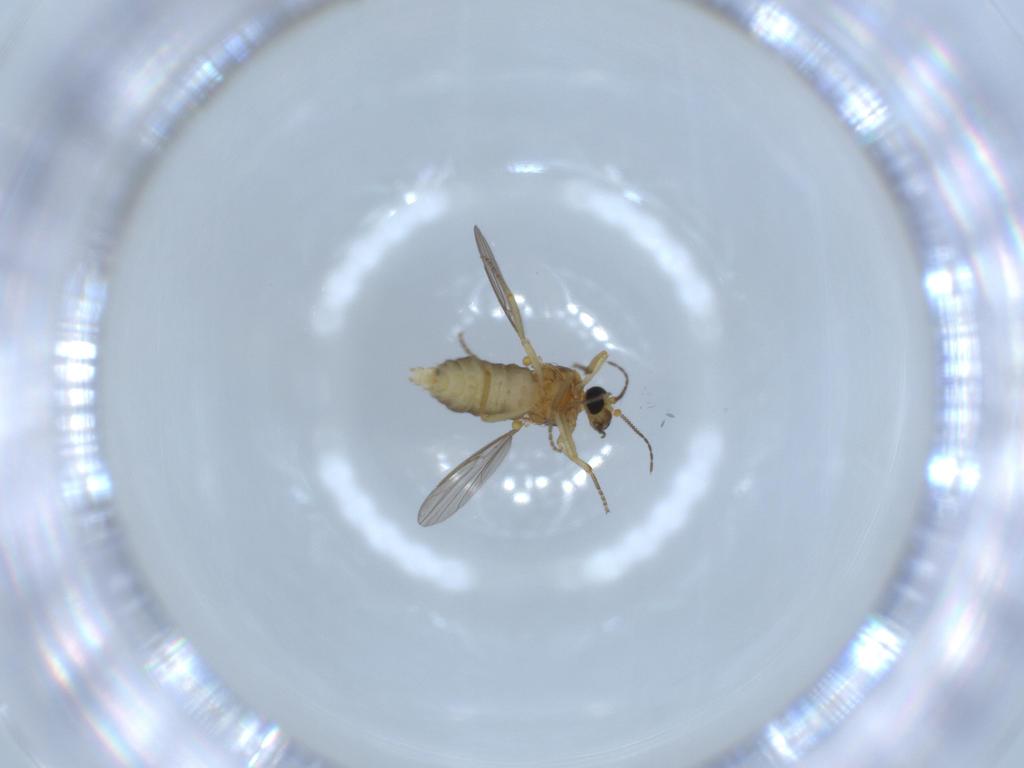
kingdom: Animalia
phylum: Arthropoda
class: Insecta
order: Diptera
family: Ceratopogonidae
